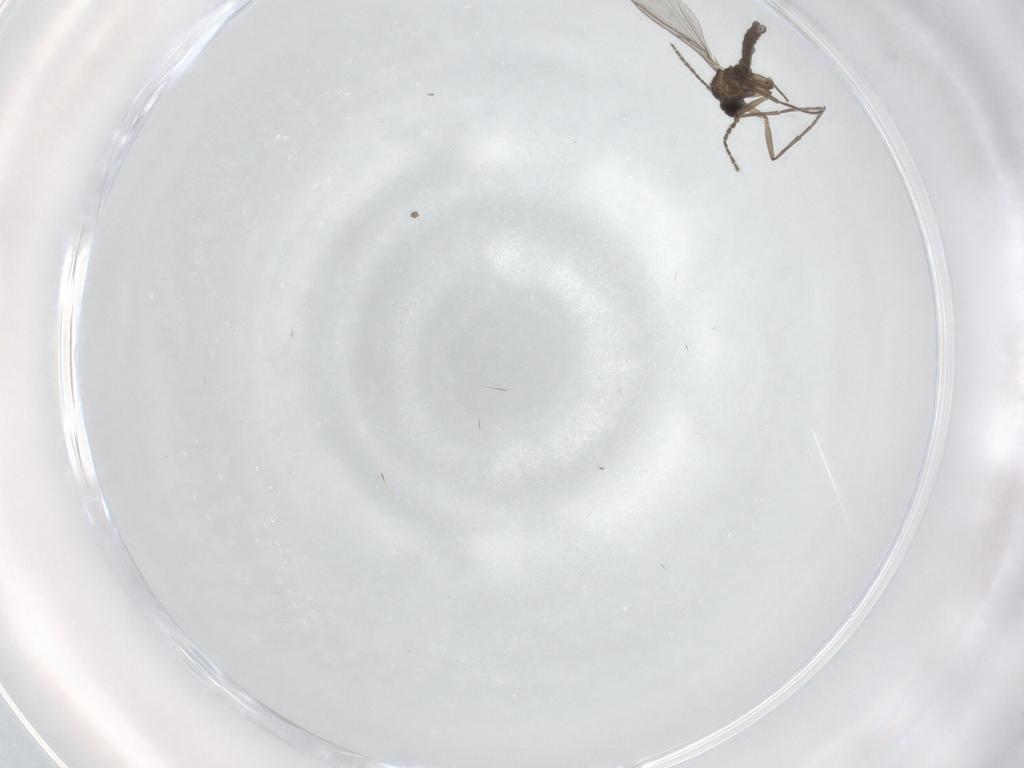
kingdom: Animalia
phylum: Arthropoda
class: Insecta
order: Diptera
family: Sciaridae
